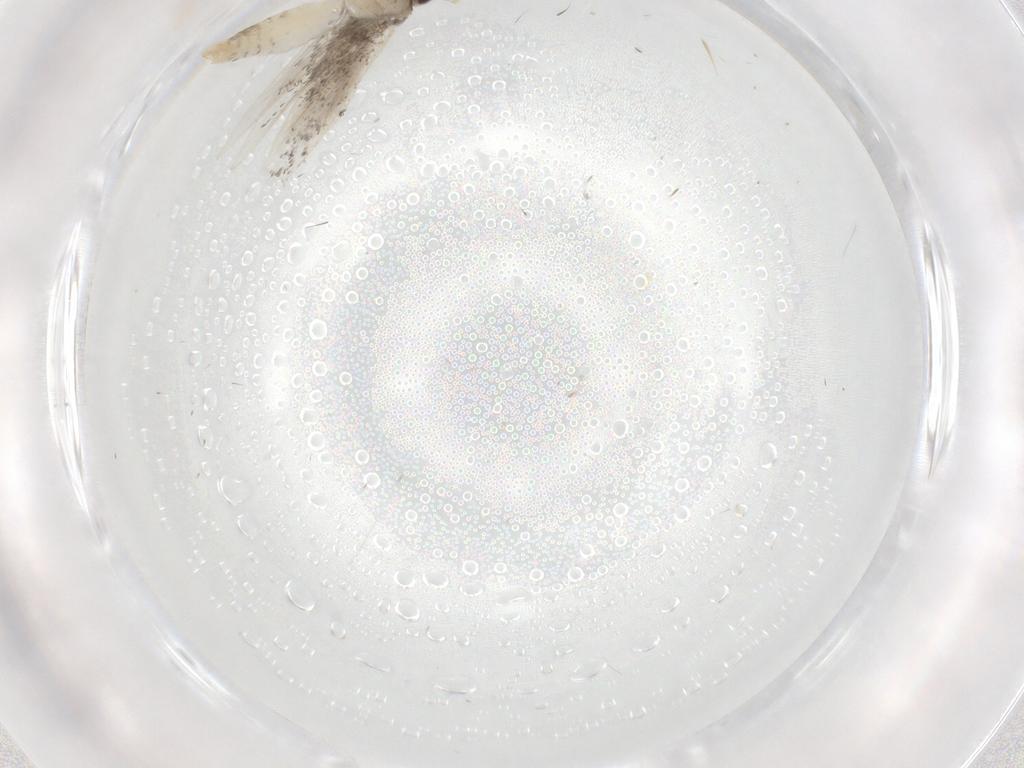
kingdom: Animalia
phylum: Arthropoda
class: Insecta
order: Lepidoptera
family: Tineidae
